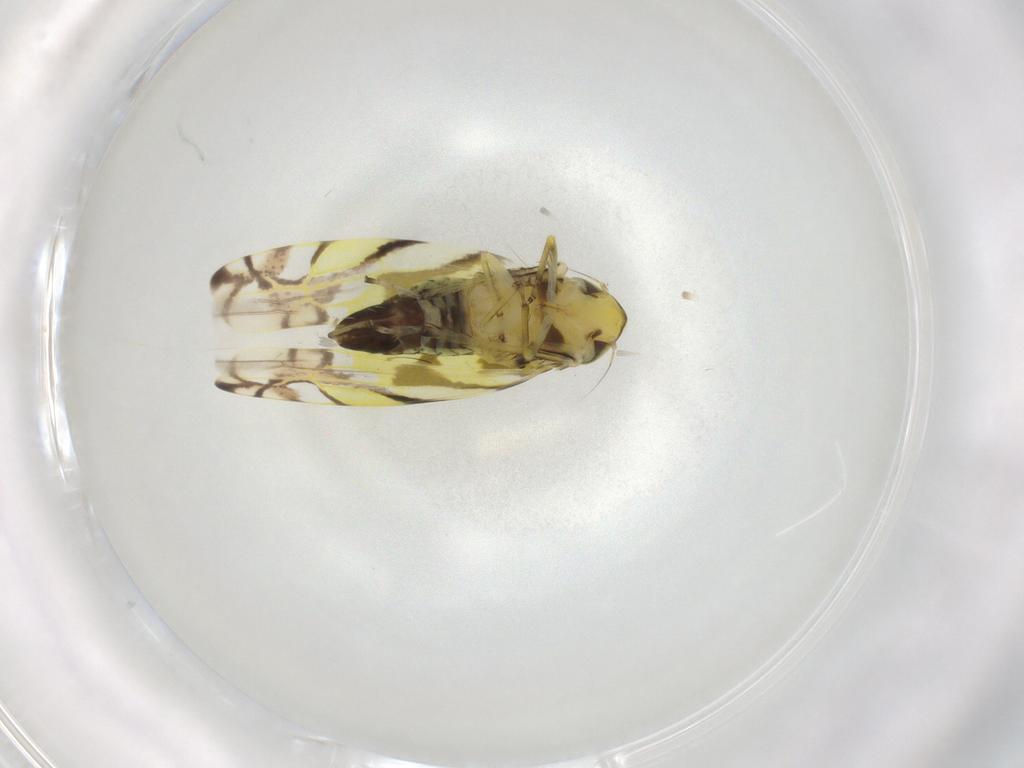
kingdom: Animalia
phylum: Arthropoda
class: Insecta
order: Hemiptera
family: Cicadellidae
